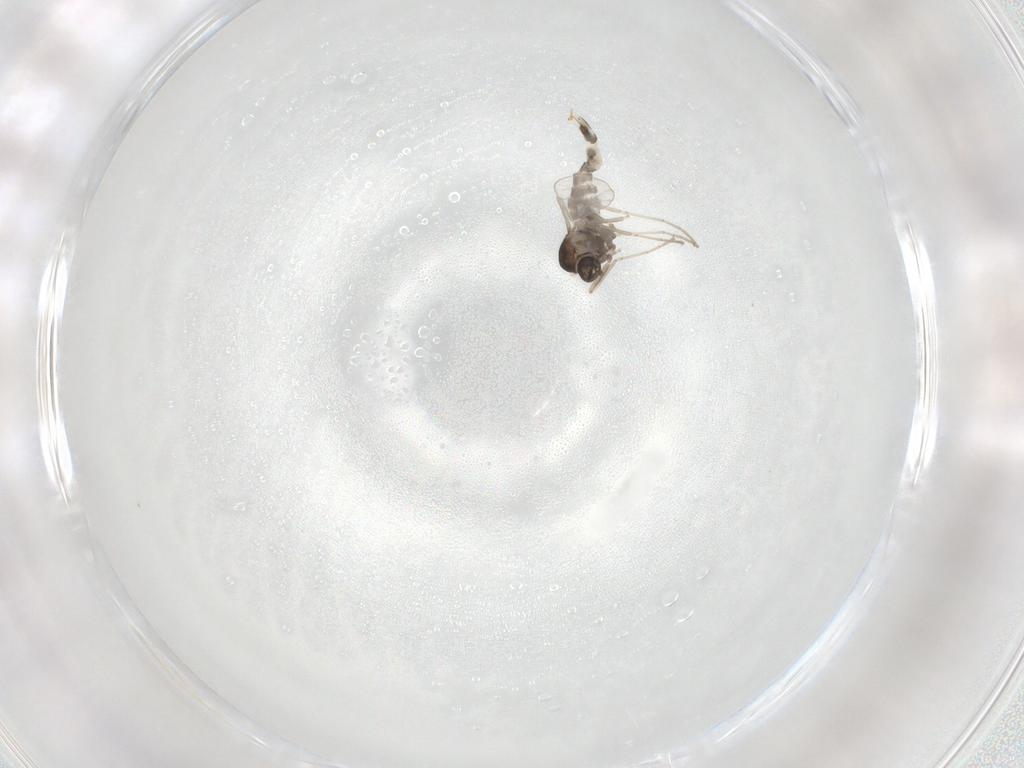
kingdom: Animalia
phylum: Arthropoda
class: Insecta
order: Diptera
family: Cecidomyiidae
